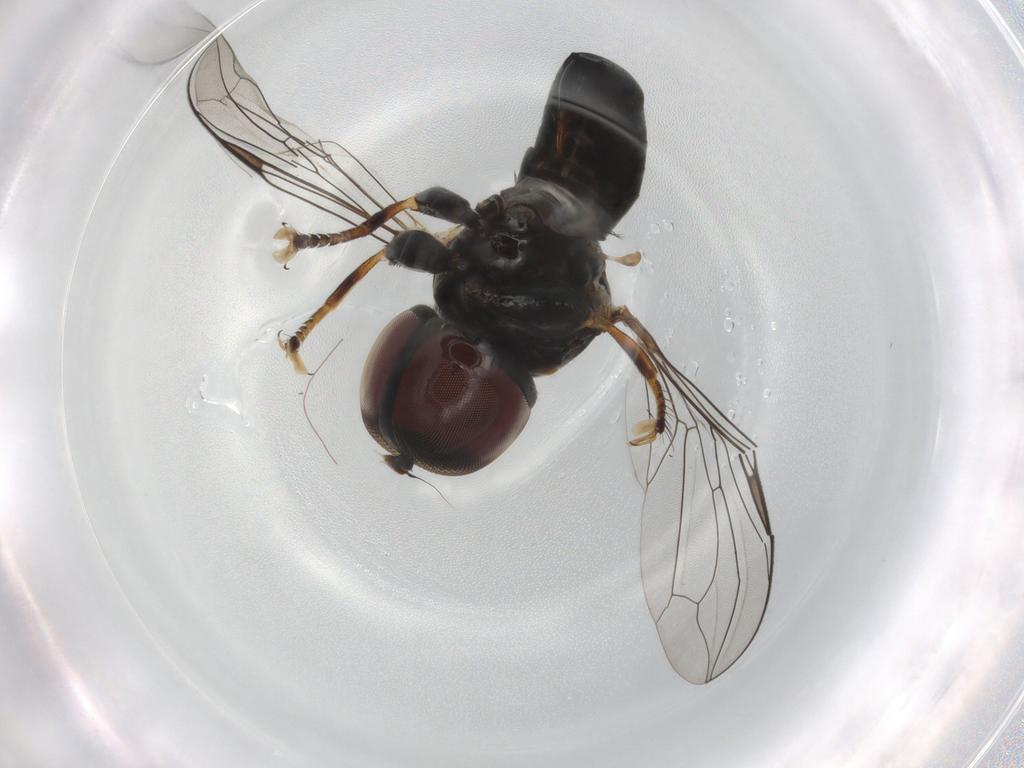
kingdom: Animalia
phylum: Arthropoda
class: Insecta
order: Diptera
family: Pipunculidae
